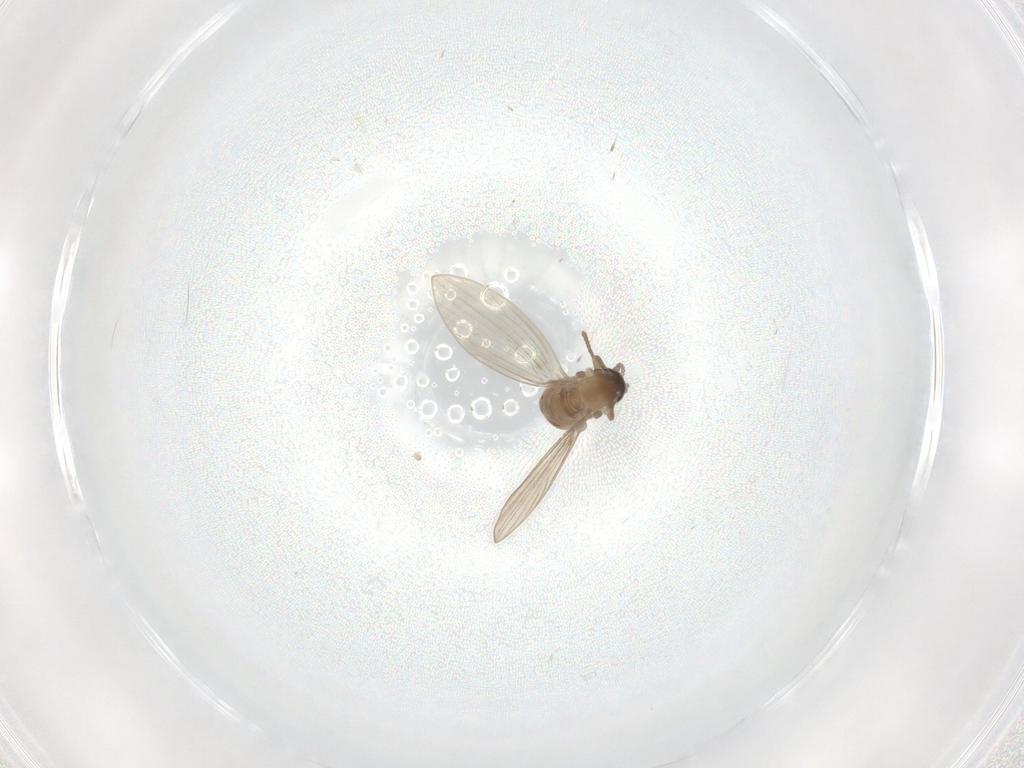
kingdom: Animalia
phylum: Arthropoda
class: Insecta
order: Diptera
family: Psychodidae
